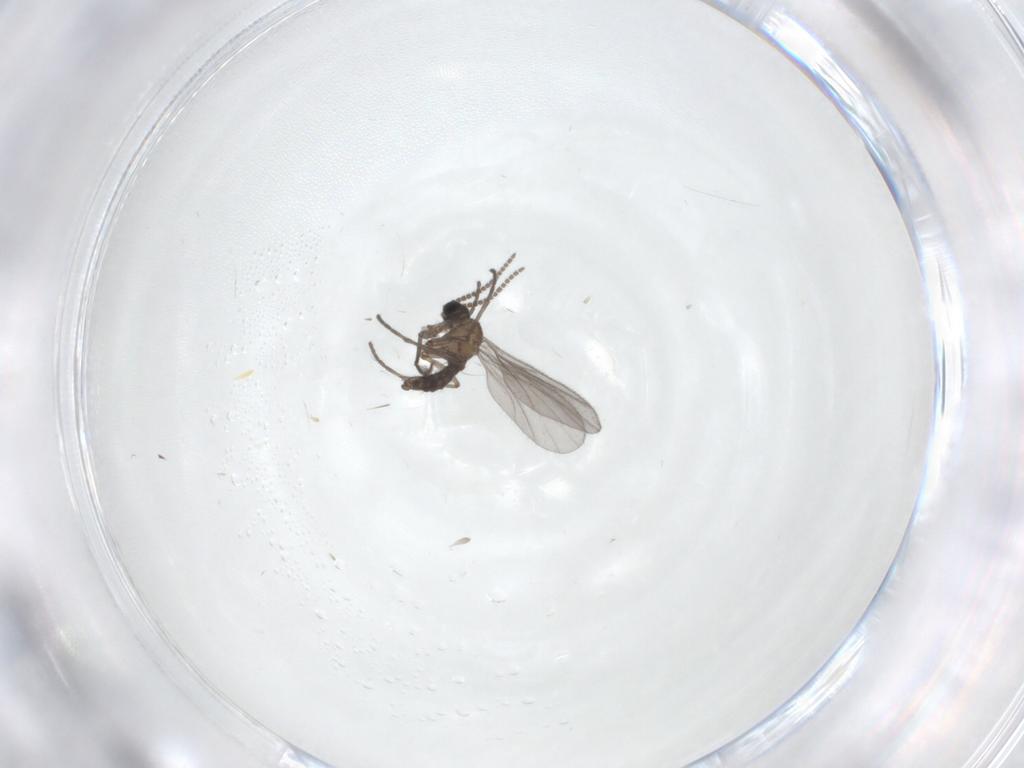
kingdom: Animalia
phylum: Arthropoda
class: Insecta
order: Diptera
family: Sciaridae
